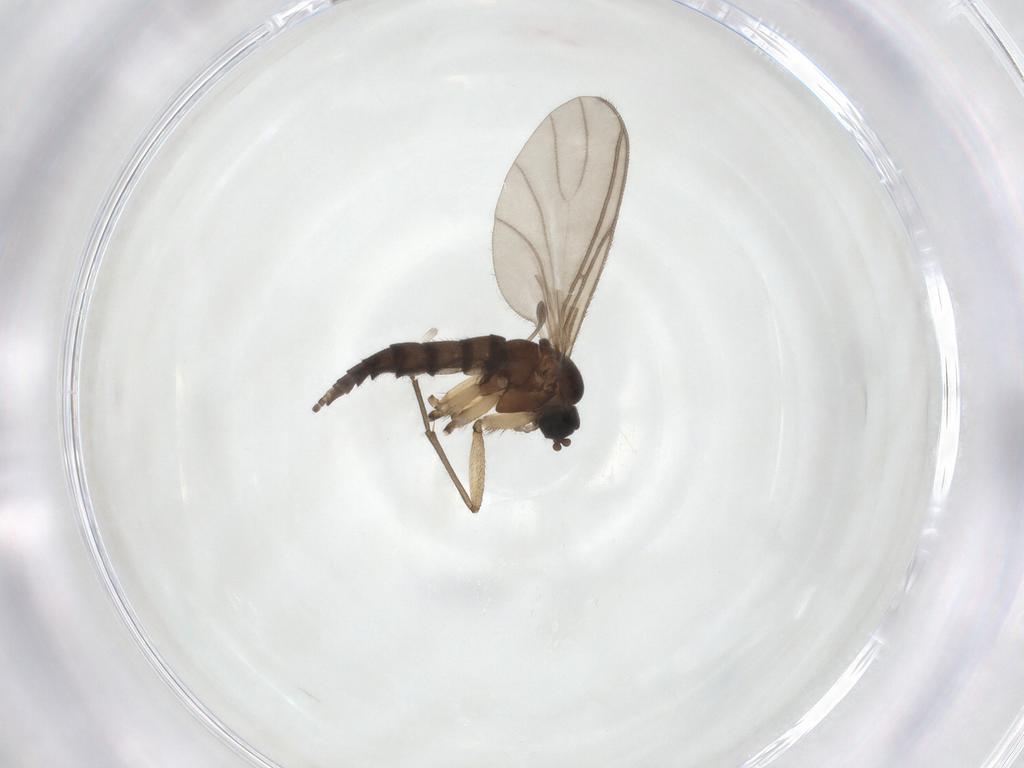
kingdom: Animalia
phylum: Arthropoda
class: Insecta
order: Diptera
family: Sciaridae
